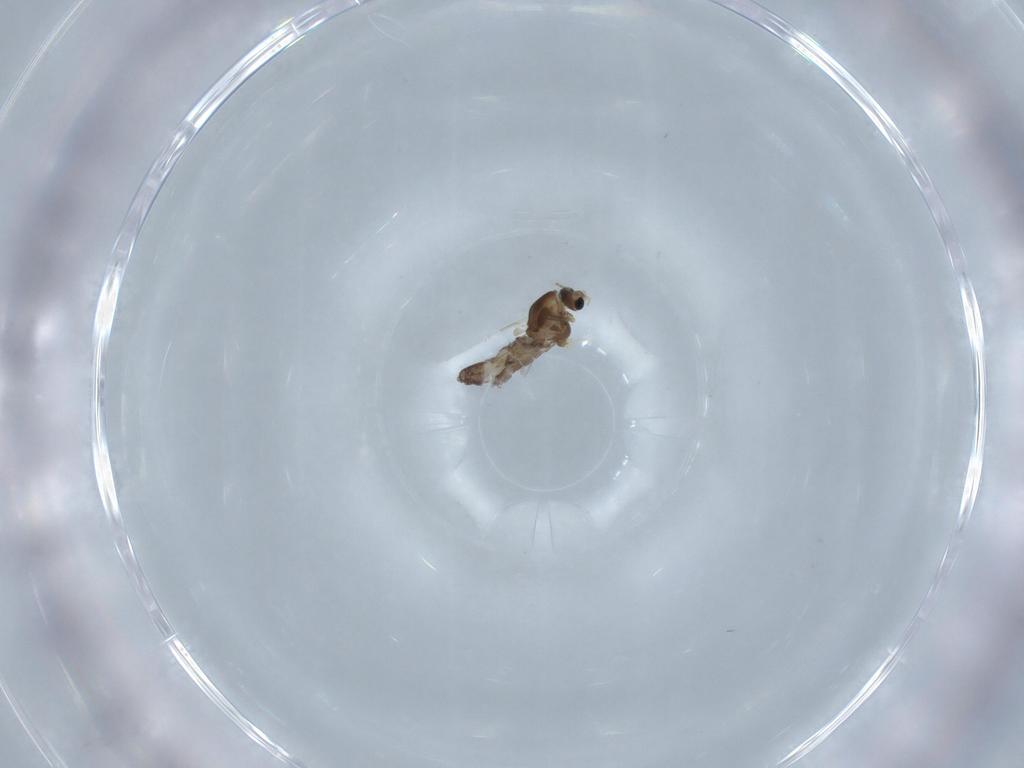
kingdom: Animalia
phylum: Arthropoda
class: Insecta
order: Diptera
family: Chironomidae
